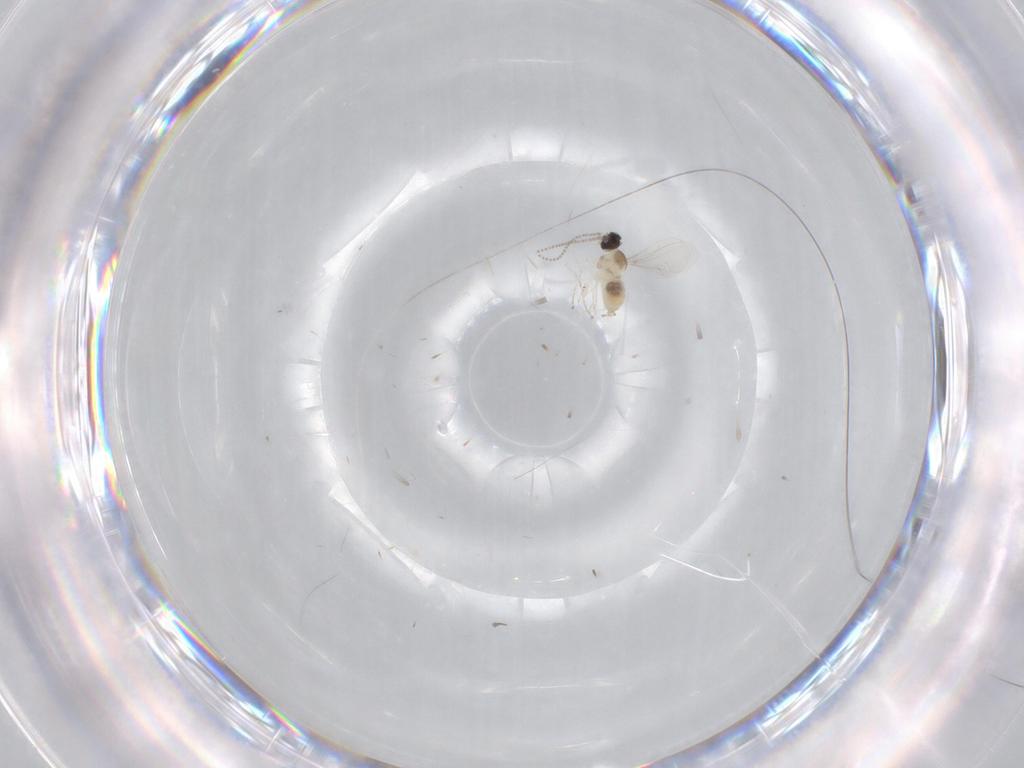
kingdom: Animalia
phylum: Arthropoda
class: Insecta
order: Diptera
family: Cecidomyiidae
